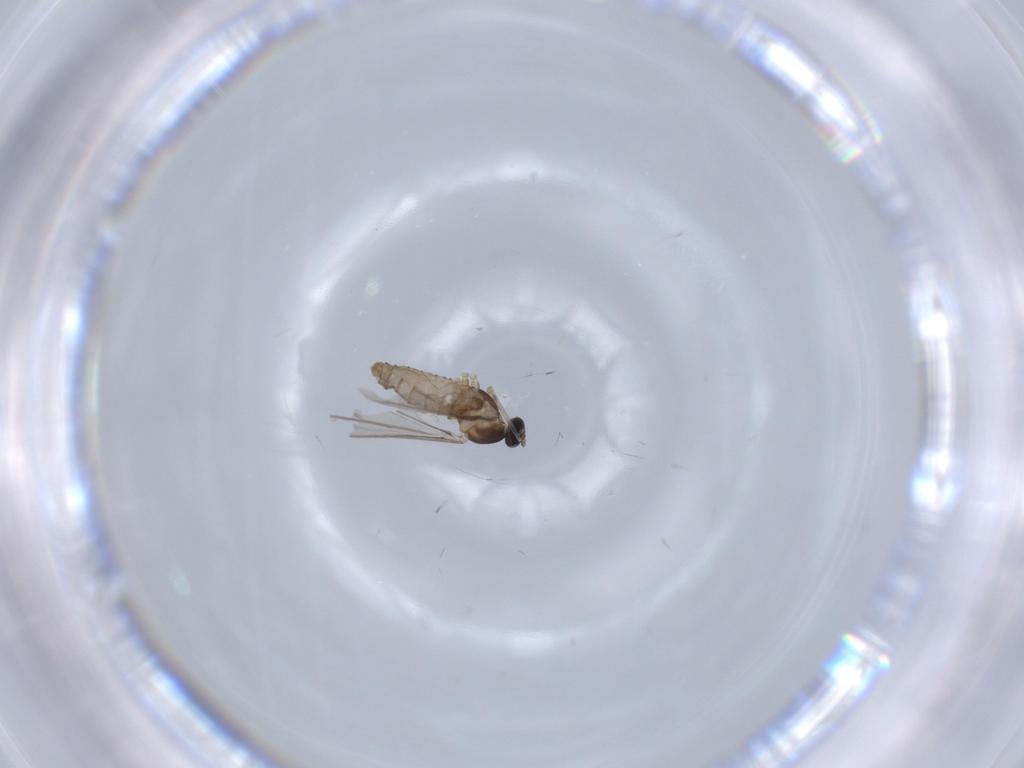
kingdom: Animalia
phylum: Arthropoda
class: Insecta
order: Diptera
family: Cecidomyiidae
